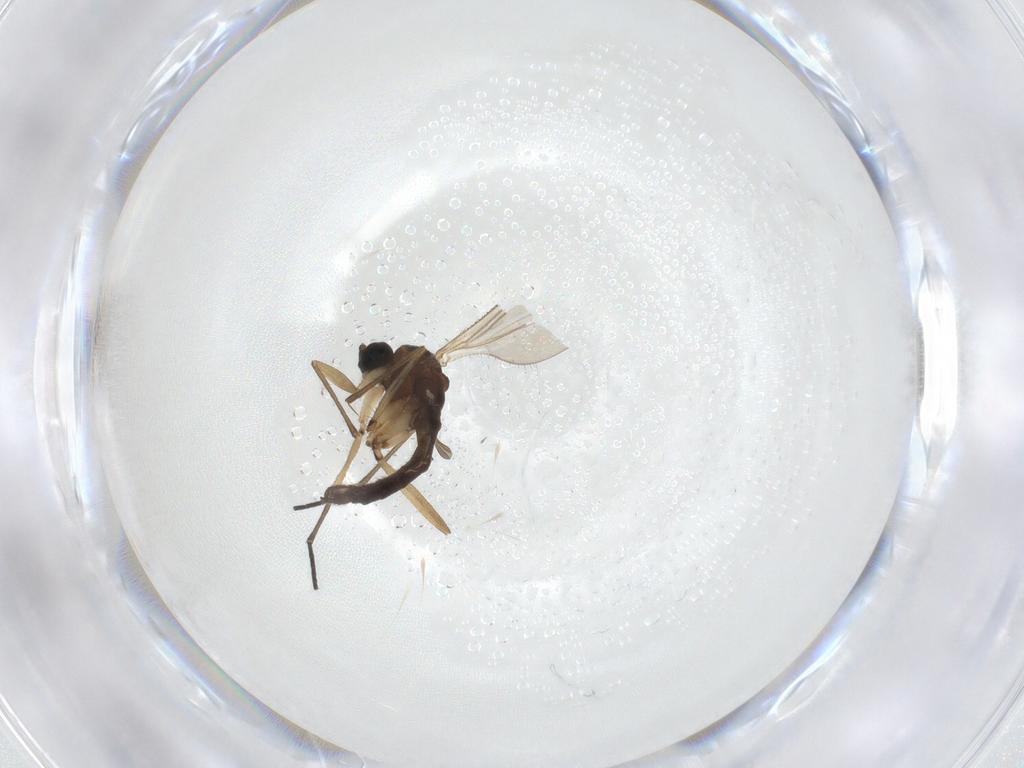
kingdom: Animalia
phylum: Arthropoda
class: Insecta
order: Diptera
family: Sciaridae
